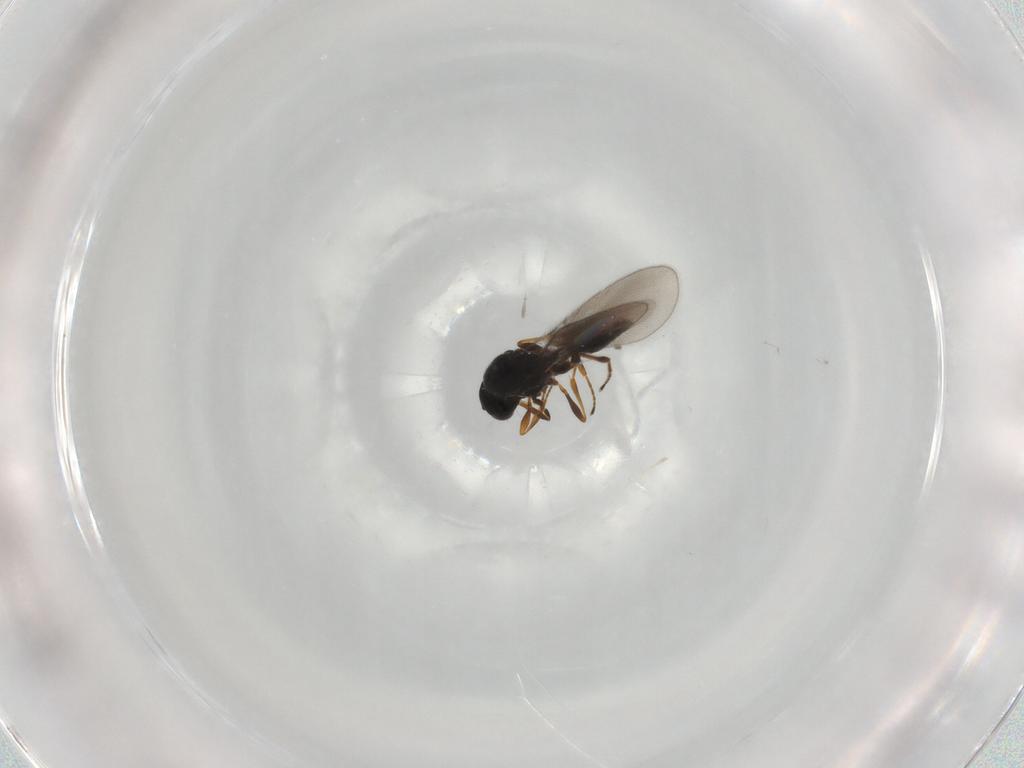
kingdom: Animalia
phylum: Arthropoda
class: Insecta
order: Hymenoptera
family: Platygastridae
